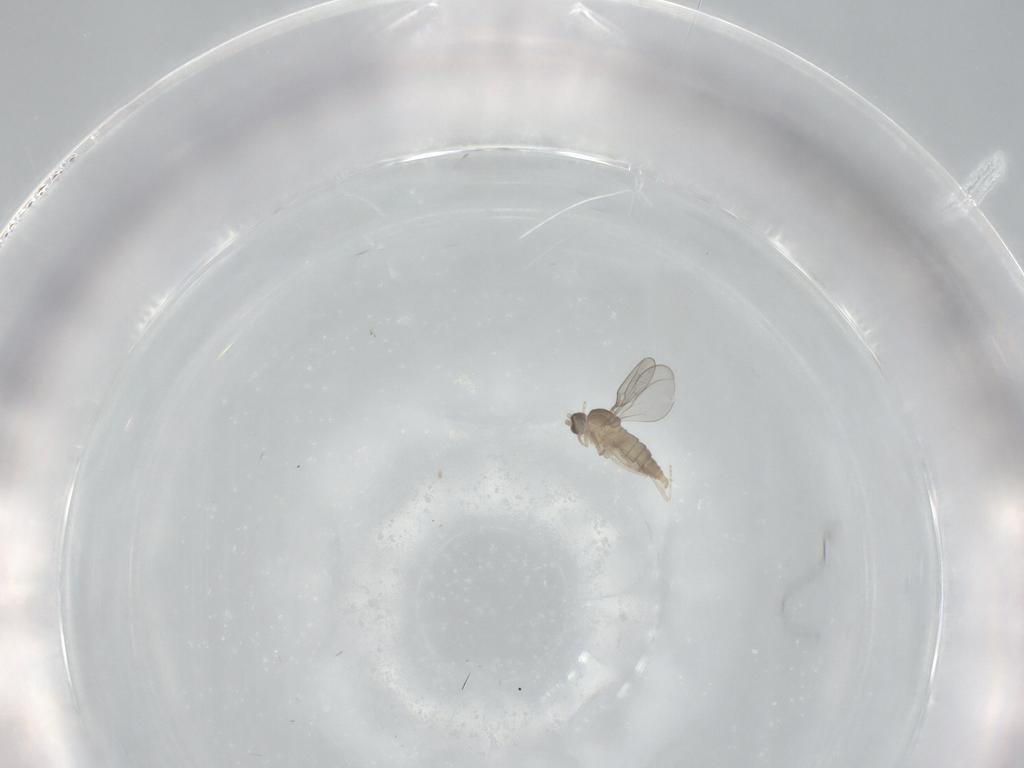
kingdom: Animalia
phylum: Arthropoda
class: Insecta
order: Diptera
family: Cecidomyiidae
